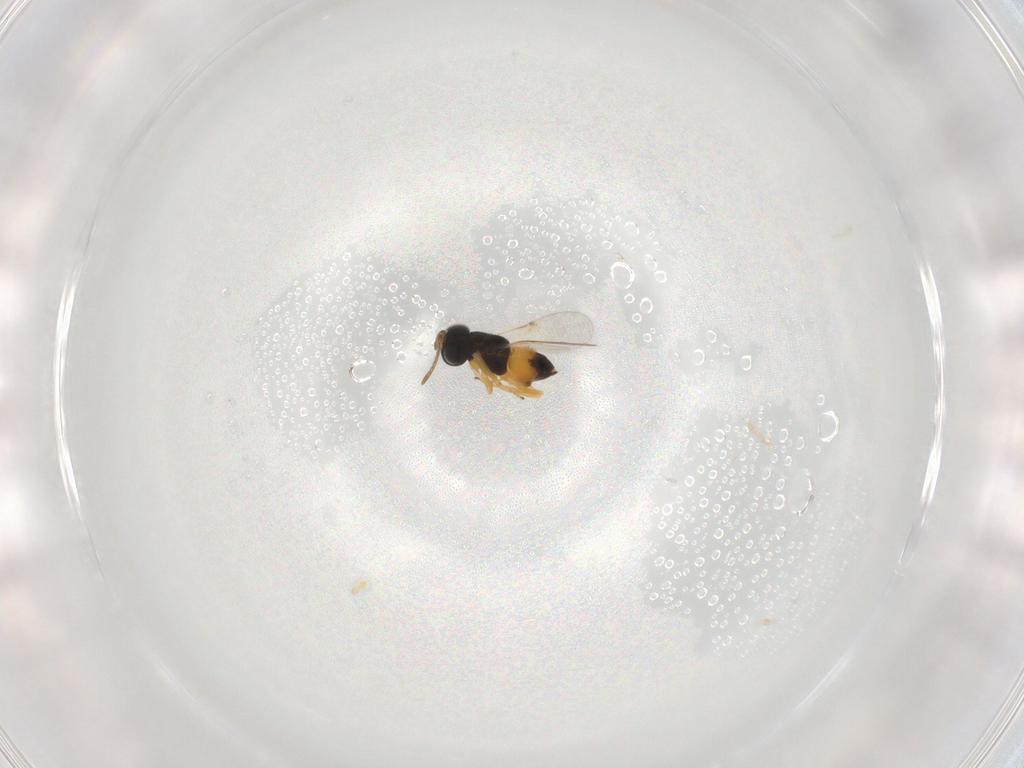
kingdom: Animalia
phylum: Arthropoda
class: Insecta
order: Hymenoptera
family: Encyrtidae
